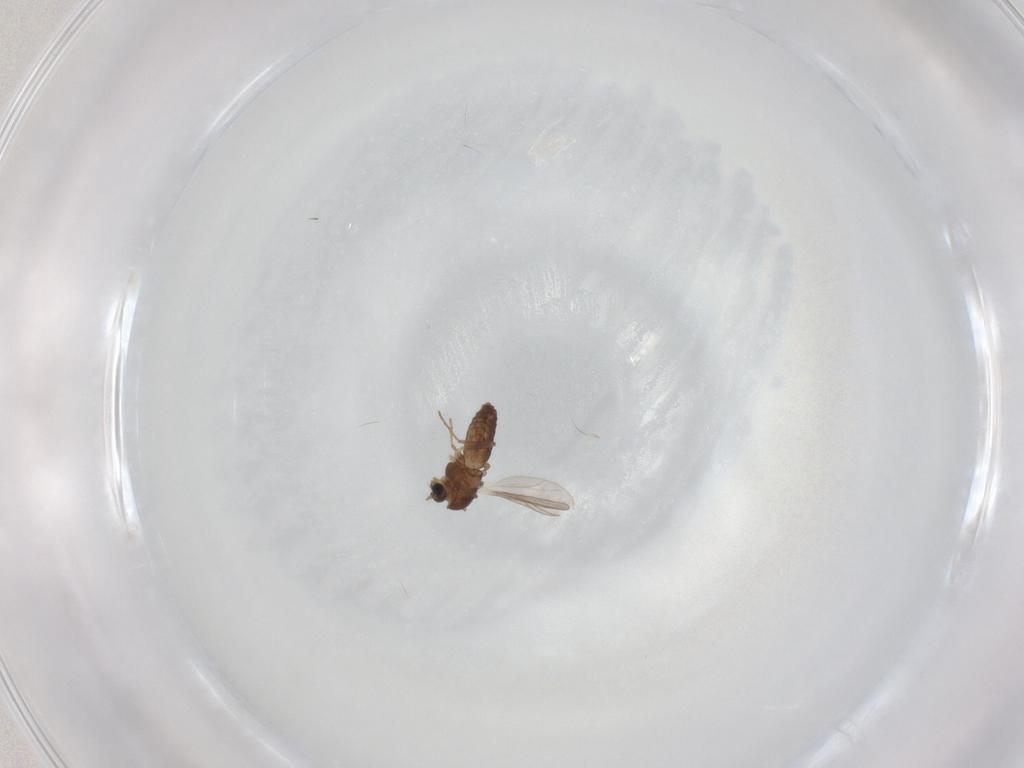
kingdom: Animalia
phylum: Arthropoda
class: Insecta
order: Diptera
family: Chironomidae
